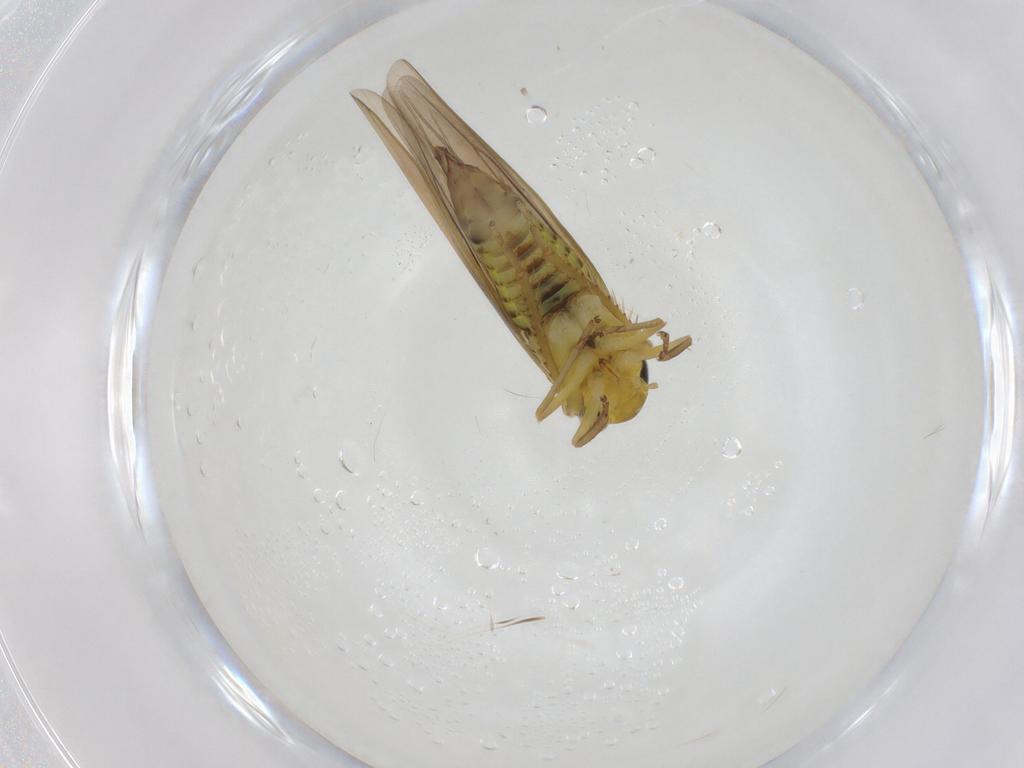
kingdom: Animalia
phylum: Arthropoda
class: Insecta
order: Hemiptera
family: Cicadellidae
